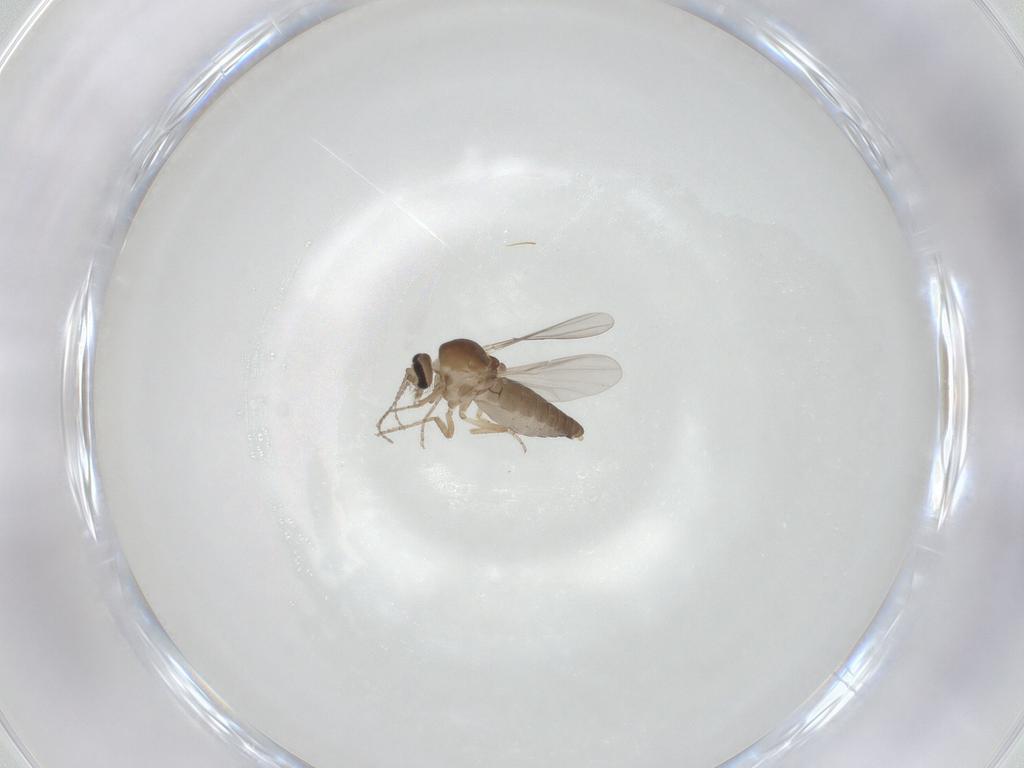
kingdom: Animalia
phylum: Arthropoda
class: Insecta
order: Diptera
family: Ceratopogonidae
